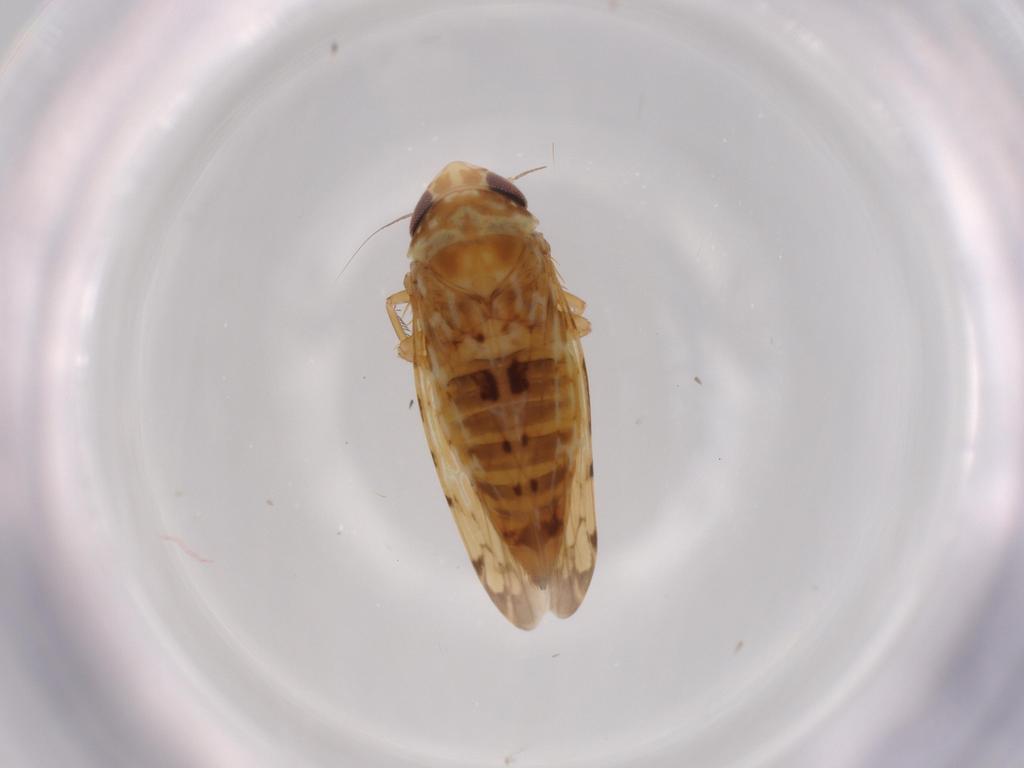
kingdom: Animalia
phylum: Arthropoda
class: Insecta
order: Hemiptera
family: Cicadellidae
